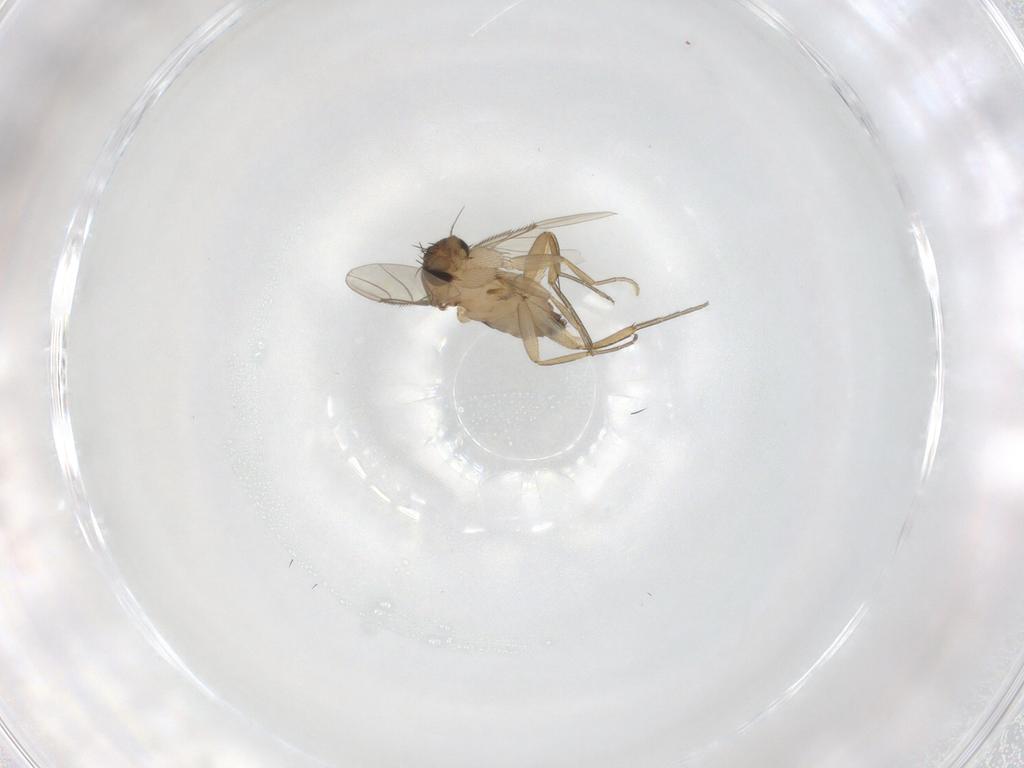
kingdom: Animalia
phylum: Arthropoda
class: Insecta
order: Diptera
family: Phoridae
